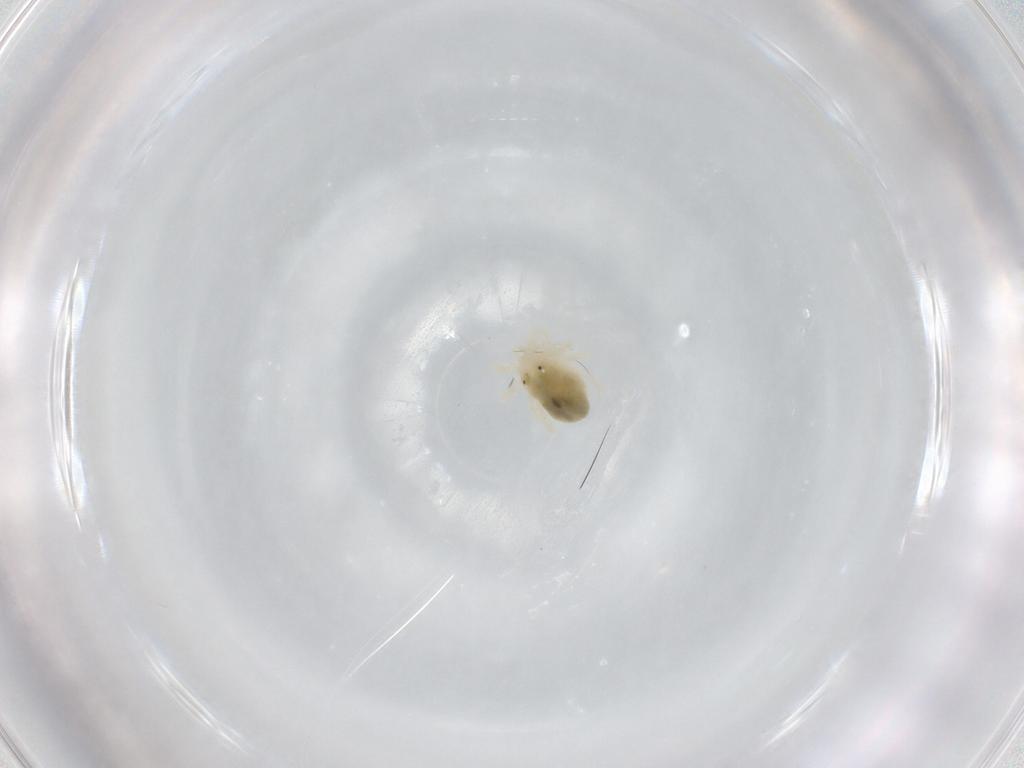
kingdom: Animalia
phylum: Arthropoda
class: Arachnida
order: Trombidiformes
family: Anystidae
